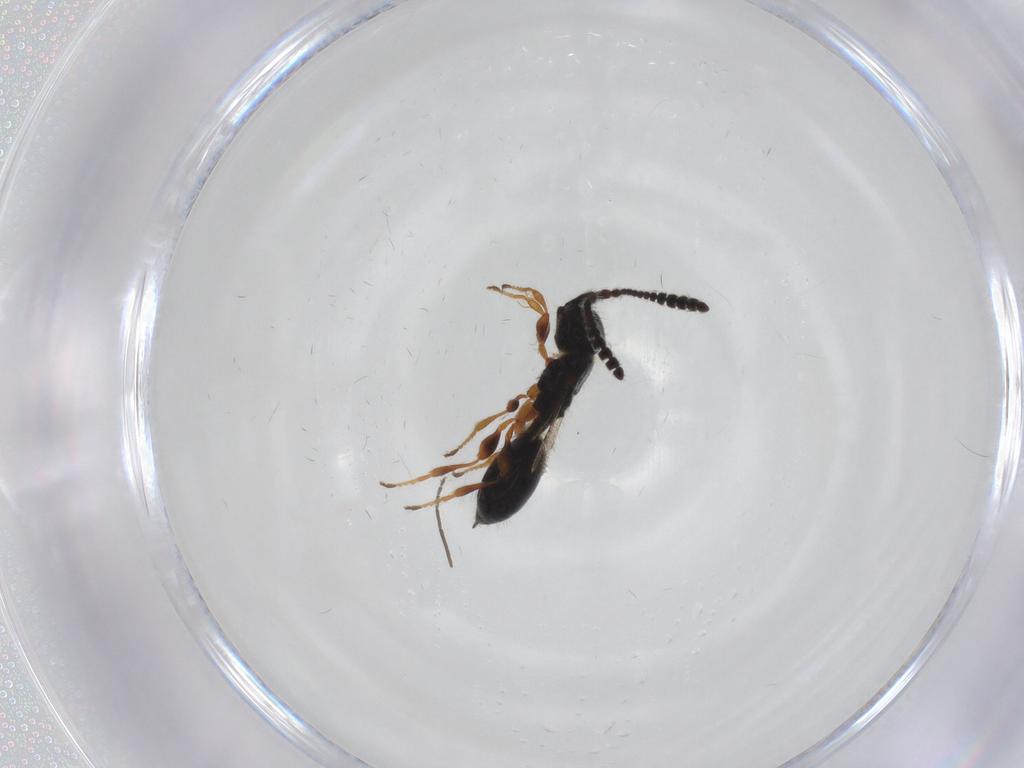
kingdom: Animalia
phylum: Arthropoda
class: Insecta
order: Hymenoptera
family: Diapriidae
